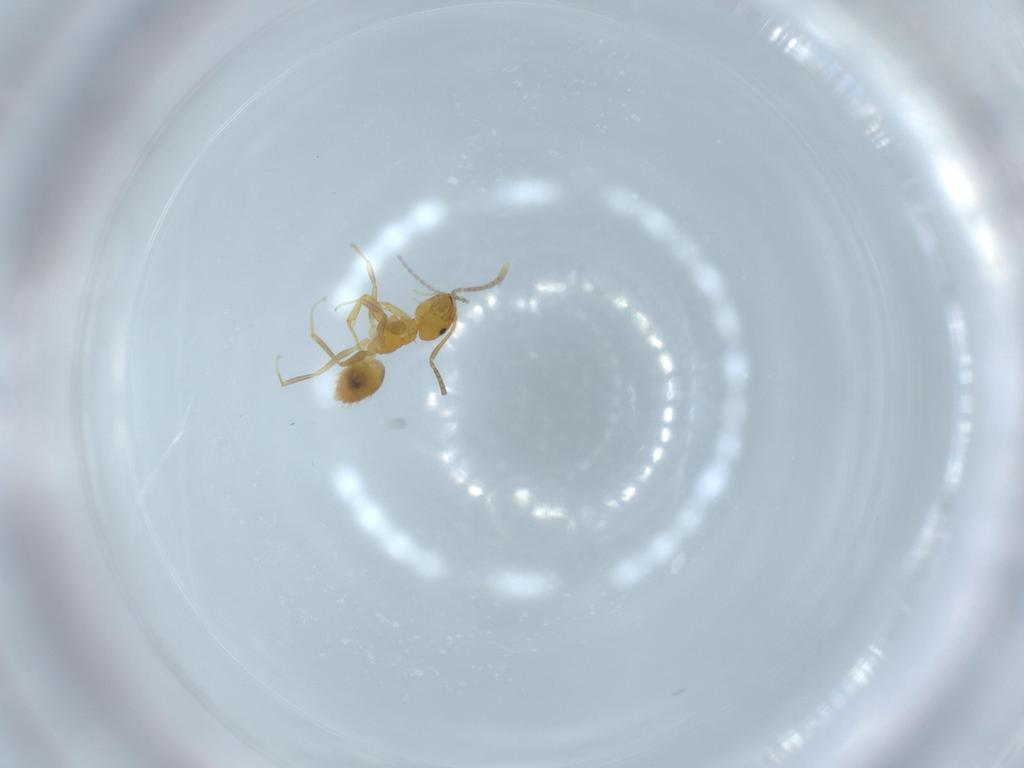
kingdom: Animalia
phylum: Arthropoda
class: Insecta
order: Hymenoptera
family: Formicidae
